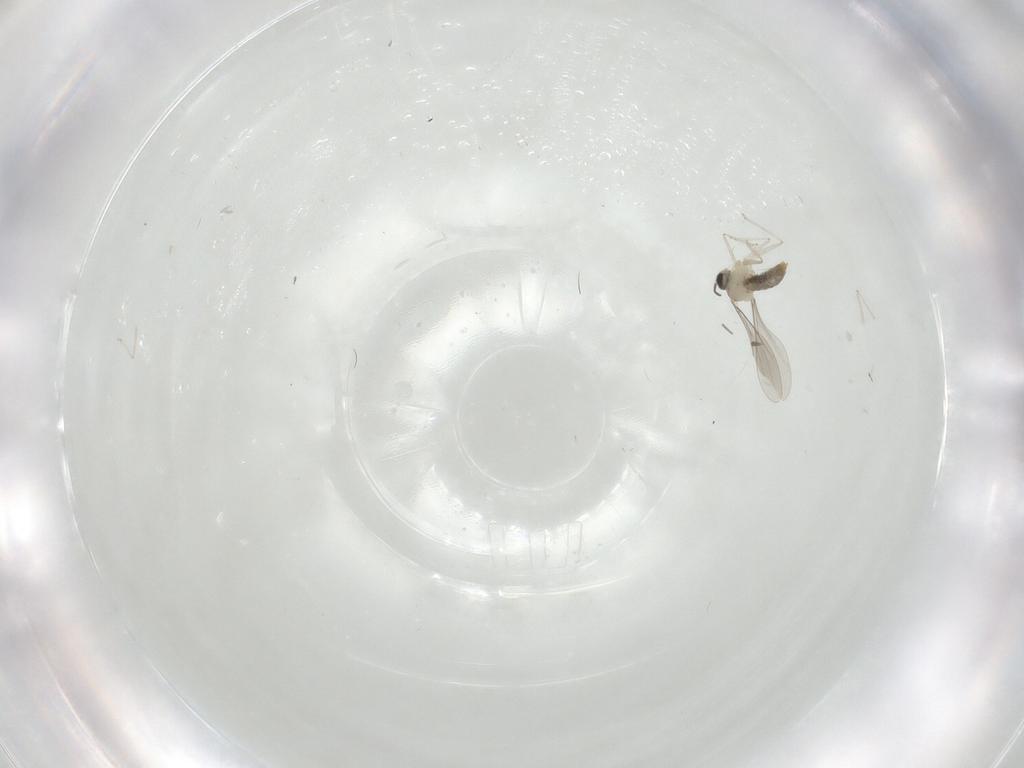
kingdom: Animalia
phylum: Arthropoda
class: Insecta
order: Diptera
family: Cecidomyiidae
